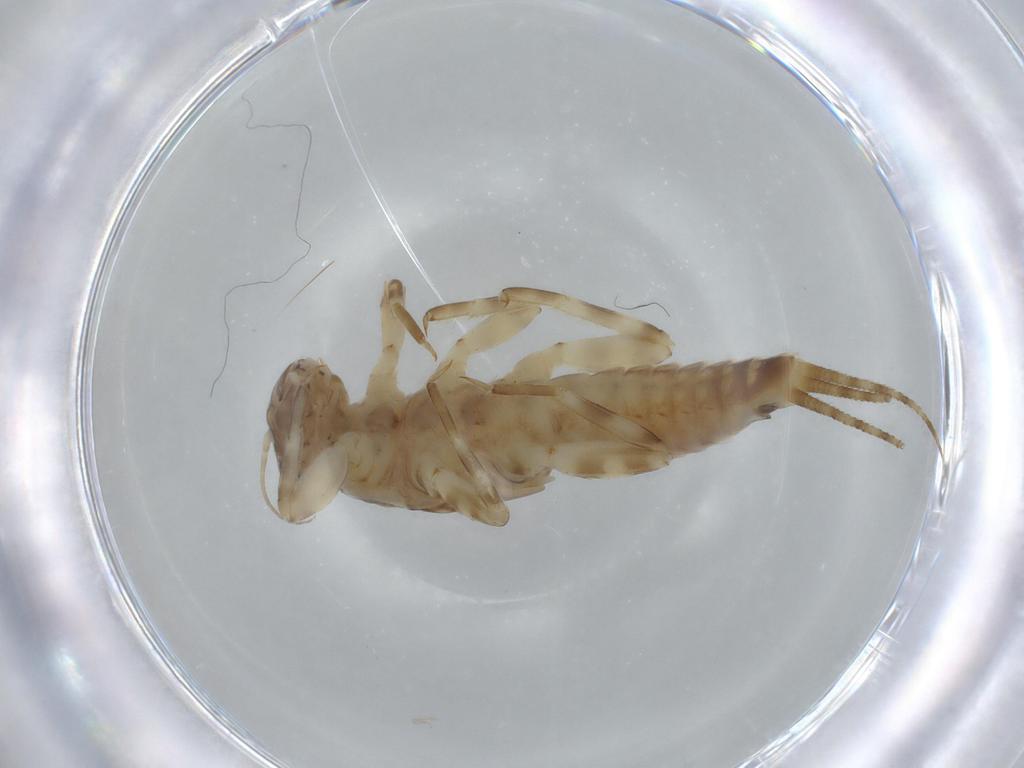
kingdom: Animalia
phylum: Arthropoda
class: Insecta
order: Ephemeroptera
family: Ephemerellidae
